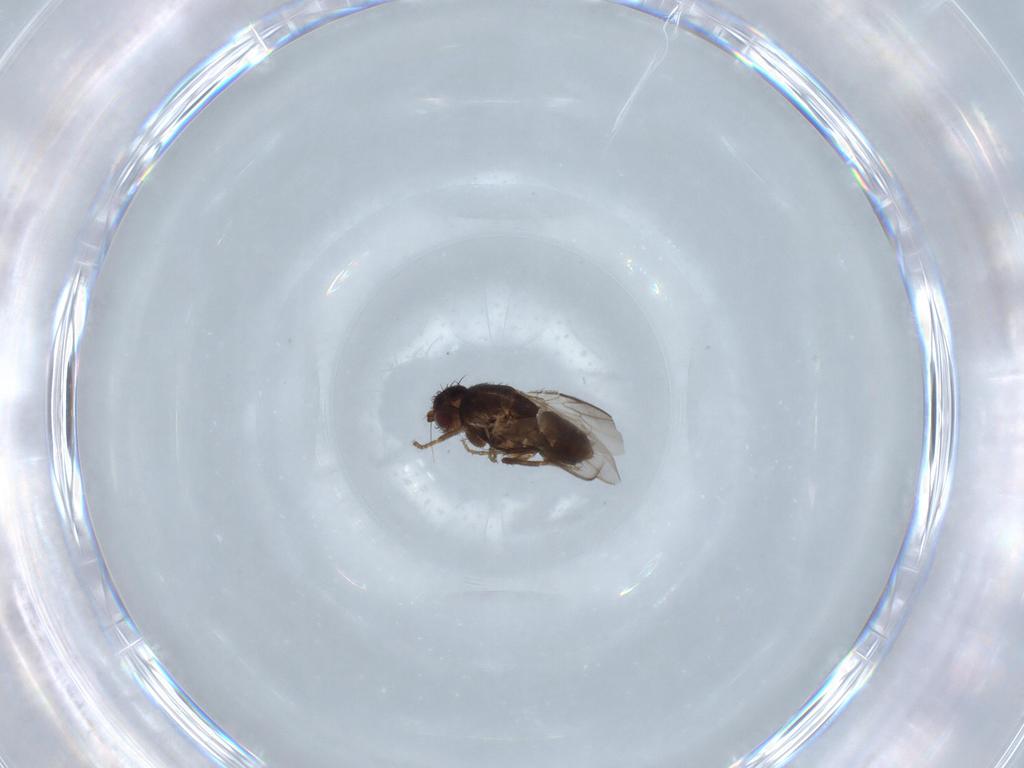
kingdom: Animalia
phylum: Arthropoda
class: Insecta
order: Diptera
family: Sphaeroceridae
